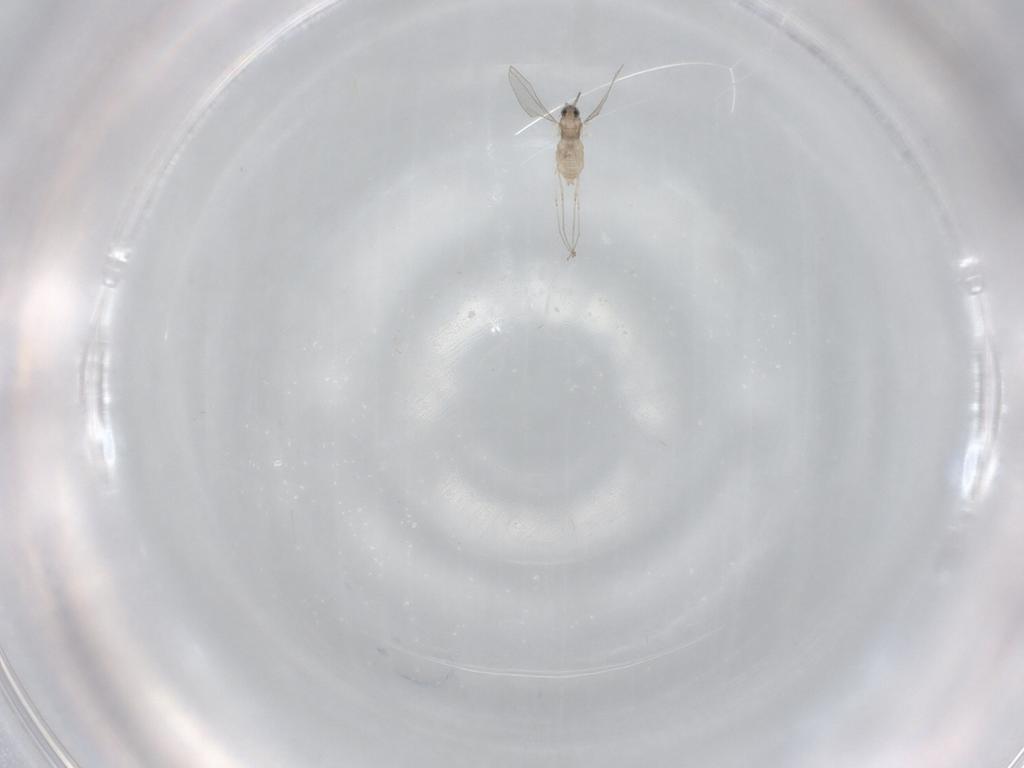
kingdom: Animalia
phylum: Arthropoda
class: Insecta
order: Diptera
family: Cecidomyiidae
